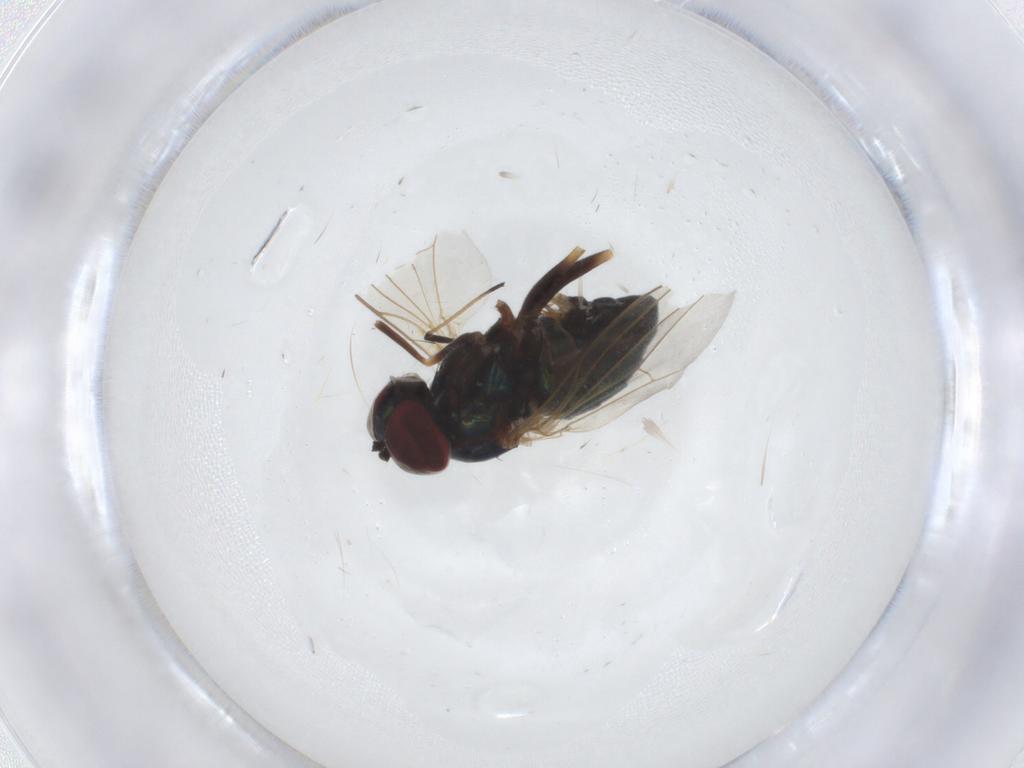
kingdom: Animalia
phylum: Arthropoda
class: Insecta
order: Diptera
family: Dolichopodidae
